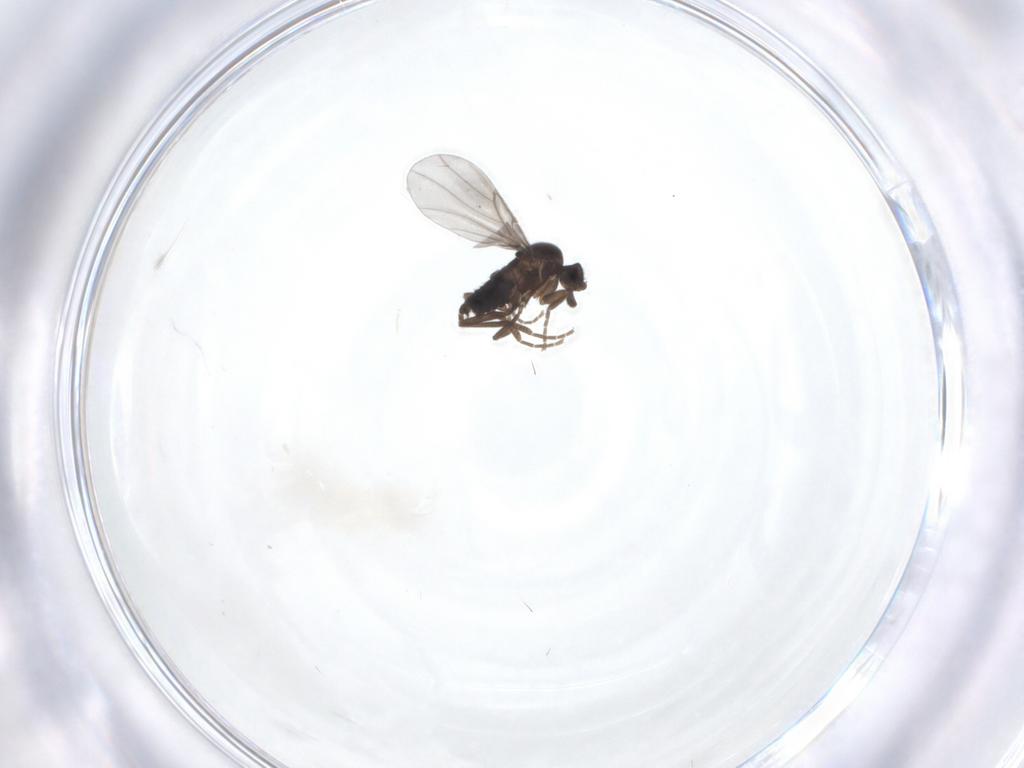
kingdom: Animalia
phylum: Arthropoda
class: Insecta
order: Diptera
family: Tipulidae
